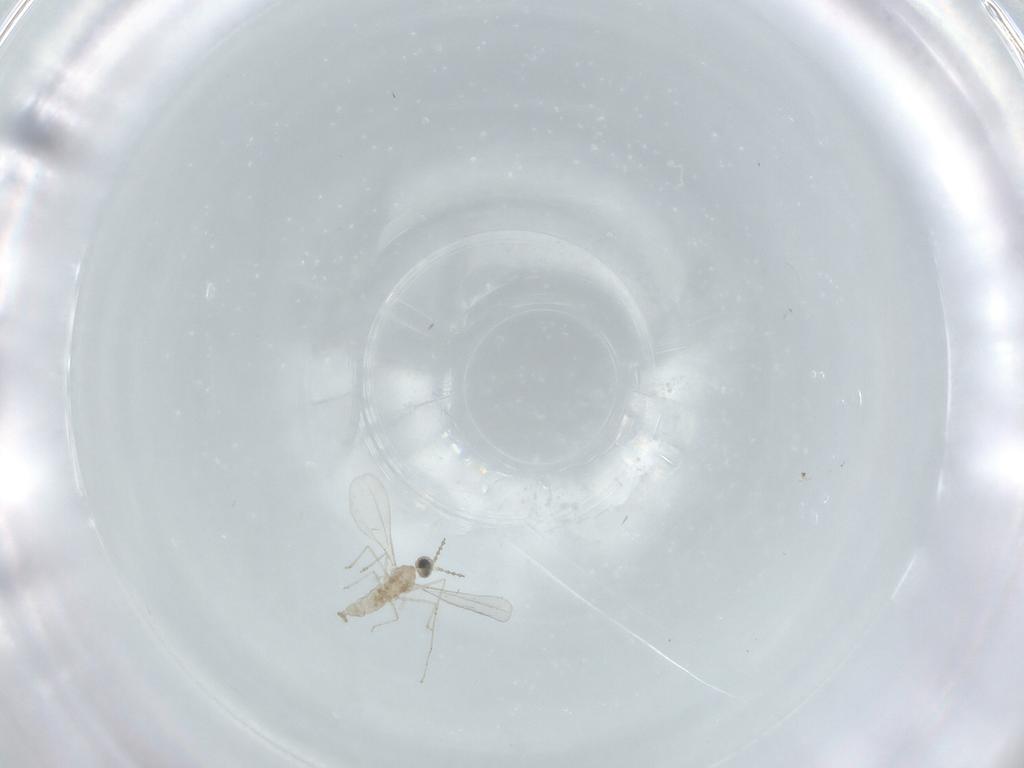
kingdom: Animalia
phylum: Arthropoda
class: Insecta
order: Diptera
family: Cecidomyiidae
